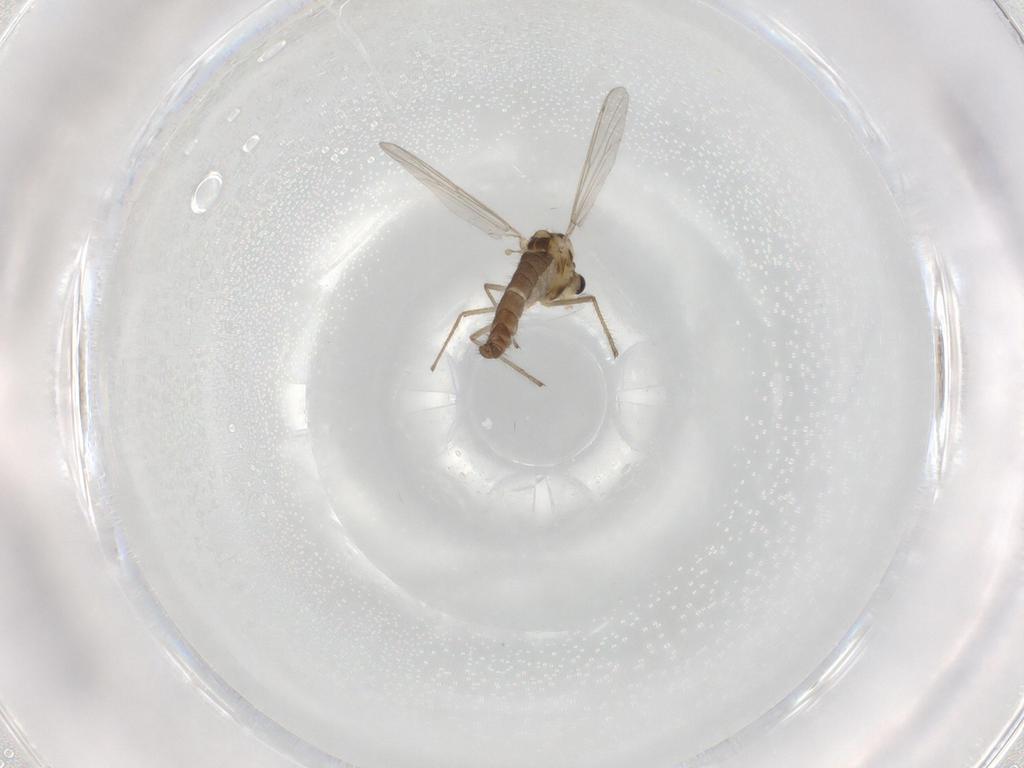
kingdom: Animalia
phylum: Arthropoda
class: Insecta
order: Diptera
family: Chironomidae
